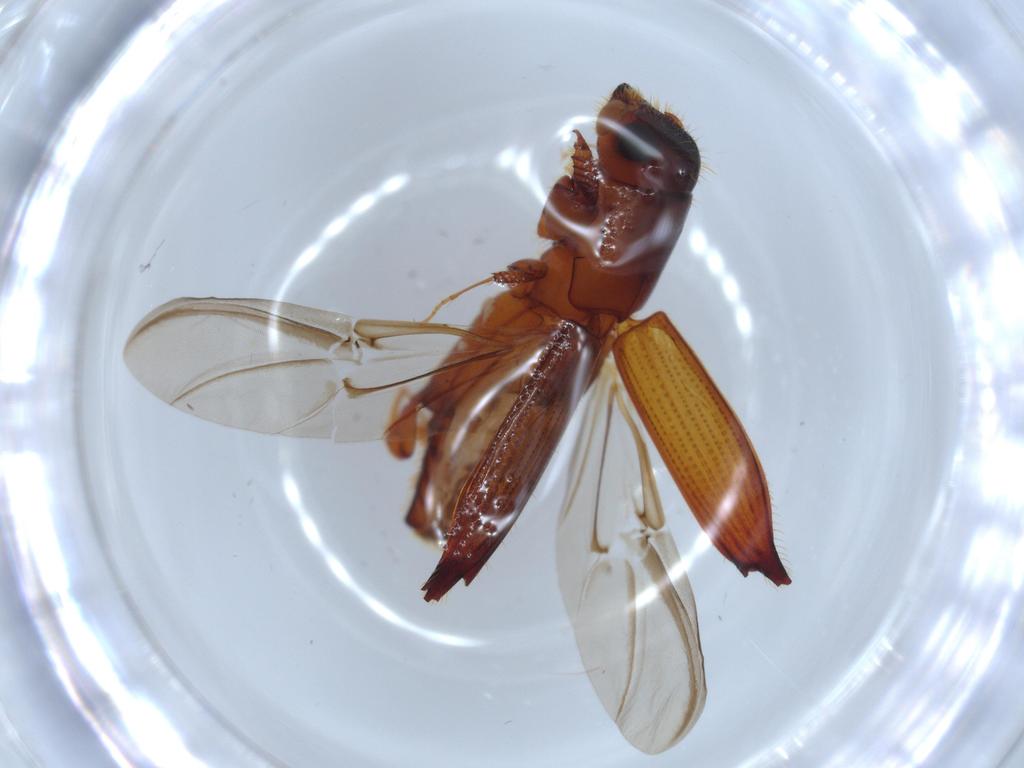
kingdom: Animalia
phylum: Arthropoda
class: Insecta
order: Coleoptera
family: Curculionidae
